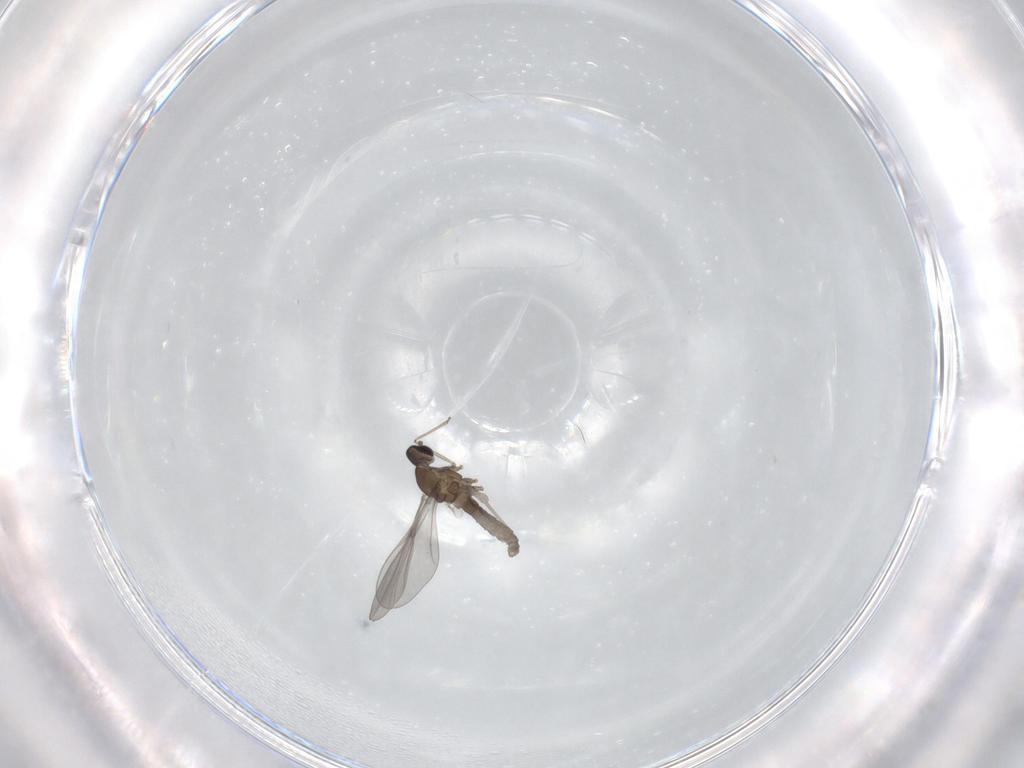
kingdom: Animalia
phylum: Arthropoda
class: Insecta
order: Diptera
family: Cecidomyiidae
